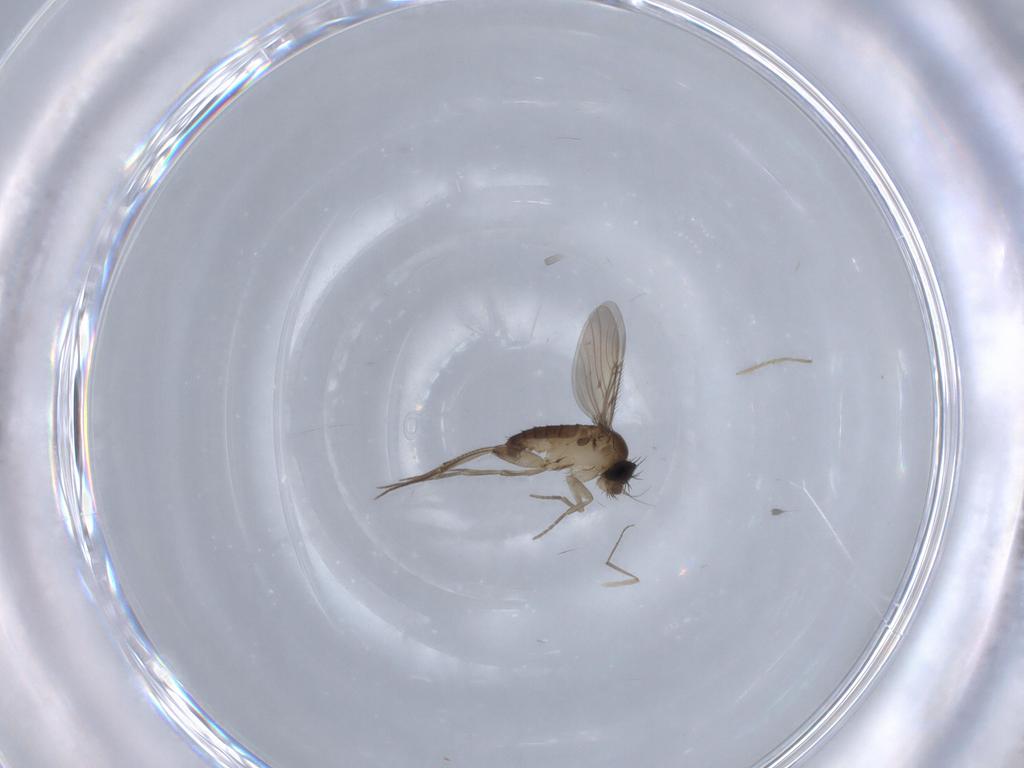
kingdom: Animalia
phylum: Arthropoda
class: Insecta
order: Diptera
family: Phoridae
